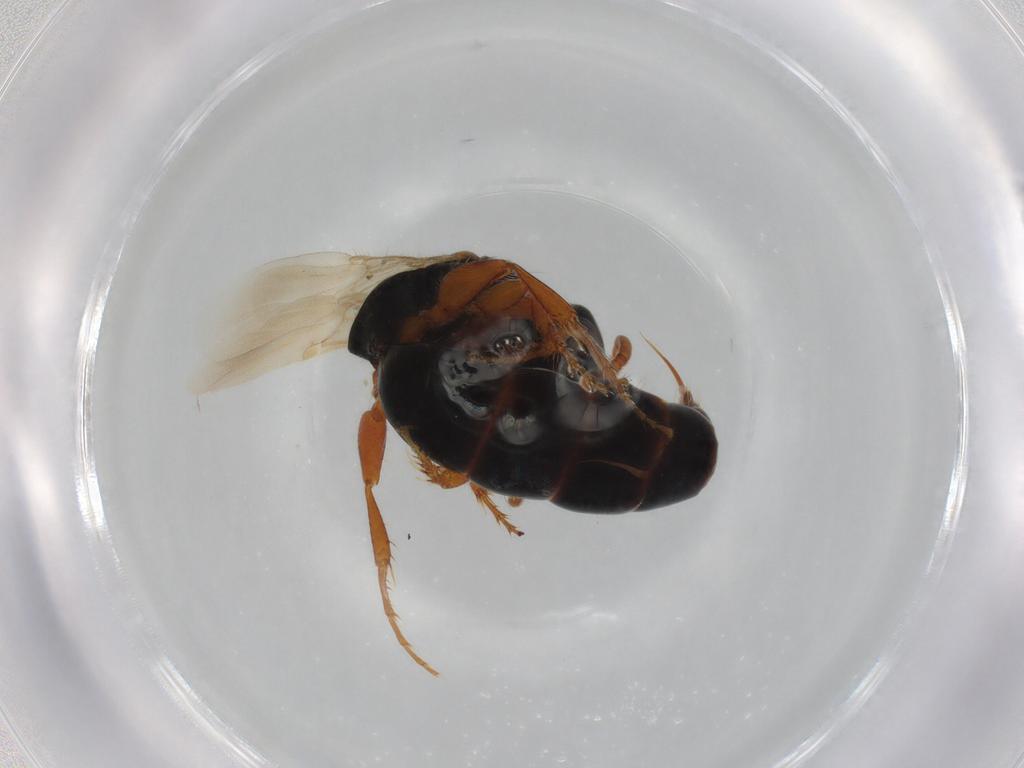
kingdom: Animalia
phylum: Arthropoda
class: Insecta
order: Hymenoptera
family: Bethylidae
